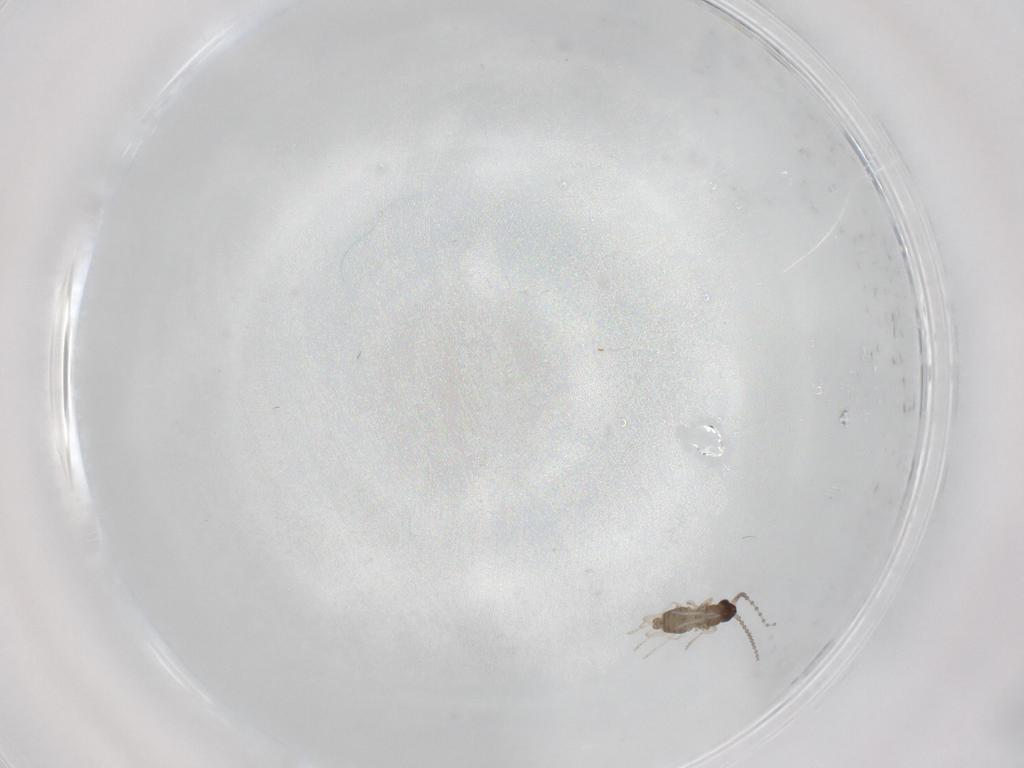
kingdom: Animalia
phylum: Arthropoda
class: Insecta
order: Diptera
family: Cecidomyiidae
